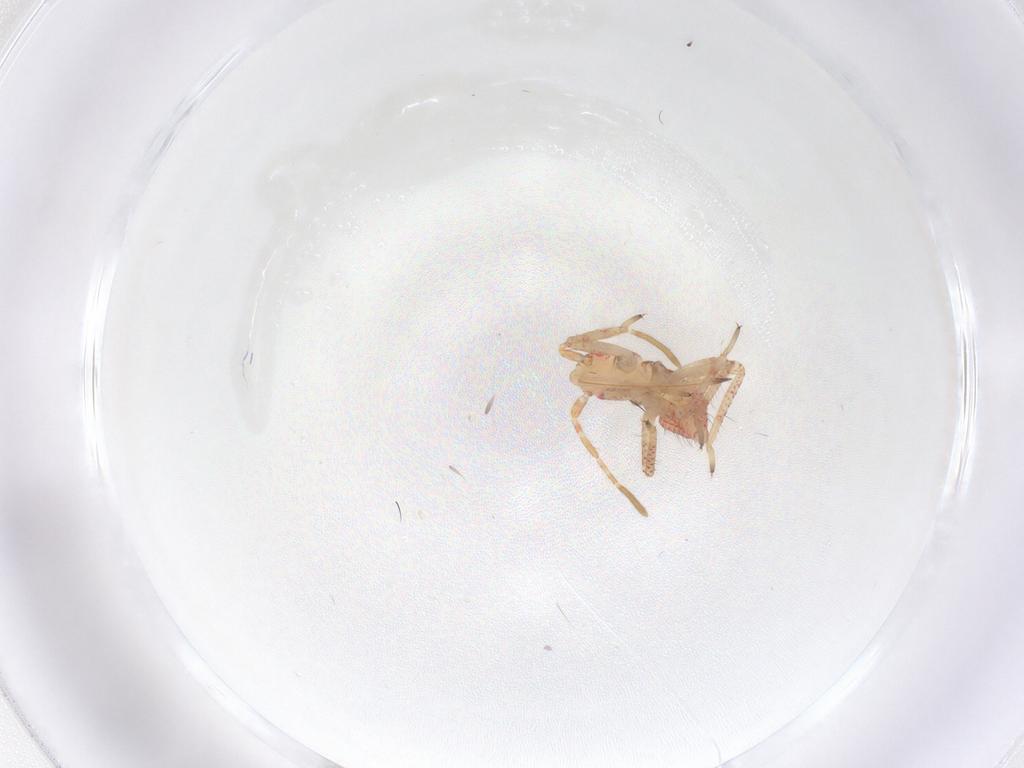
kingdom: Animalia
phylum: Arthropoda
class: Insecta
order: Hemiptera
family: Miridae
